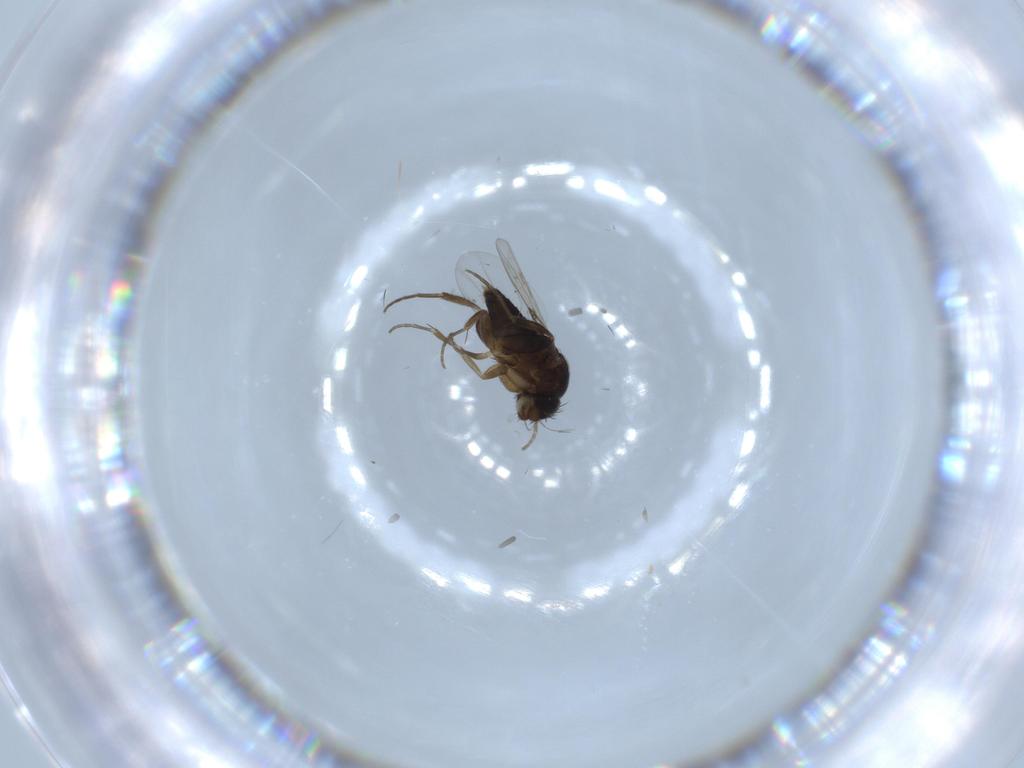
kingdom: Animalia
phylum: Arthropoda
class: Insecta
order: Diptera
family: Phoridae
